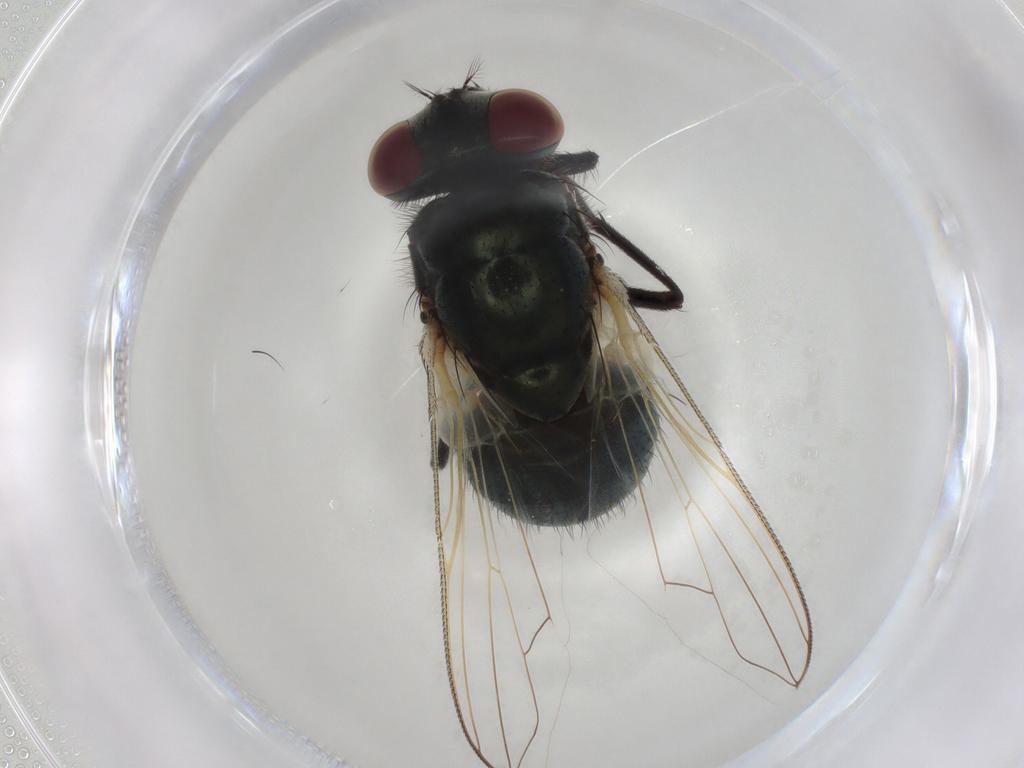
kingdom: Animalia
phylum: Arthropoda
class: Insecta
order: Diptera
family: Muscidae
